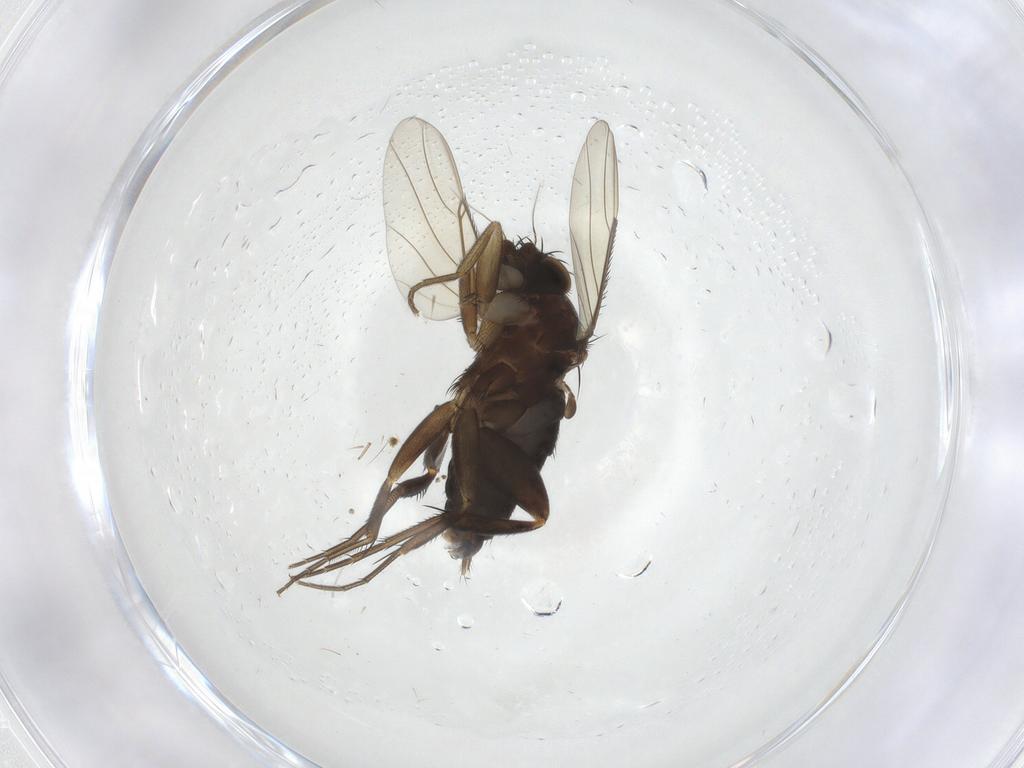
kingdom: Animalia
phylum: Arthropoda
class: Insecta
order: Diptera
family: Phoridae
